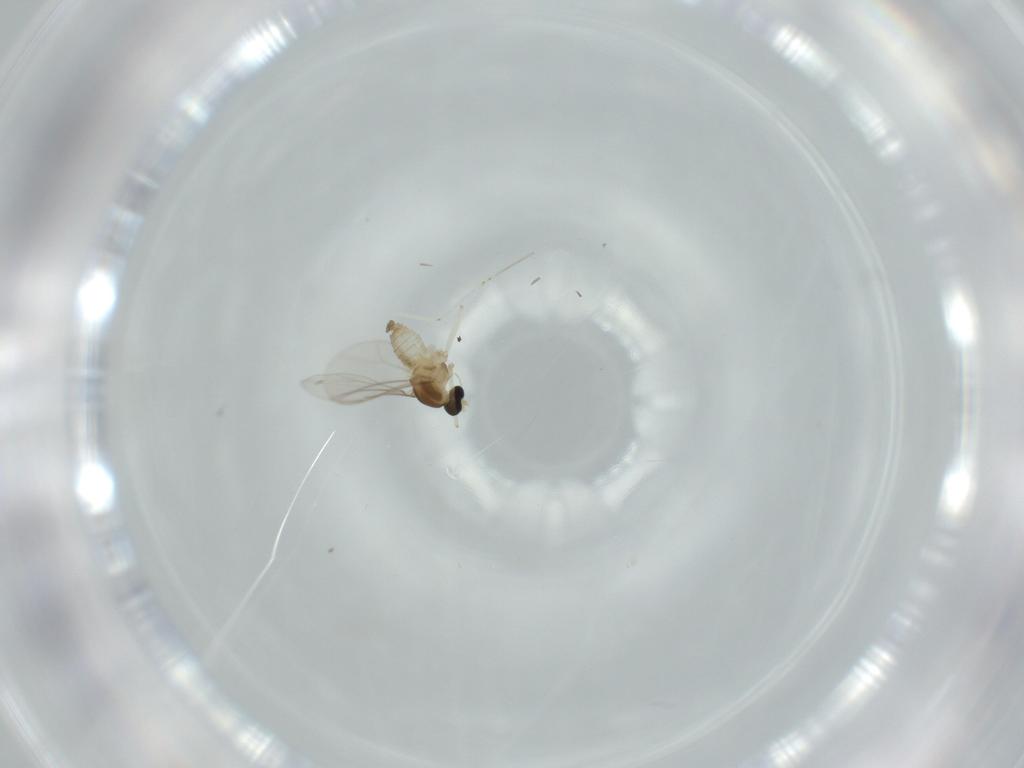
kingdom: Animalia
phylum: Arthropoda
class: Insecta
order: Diptera
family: Cecidomyiidae
